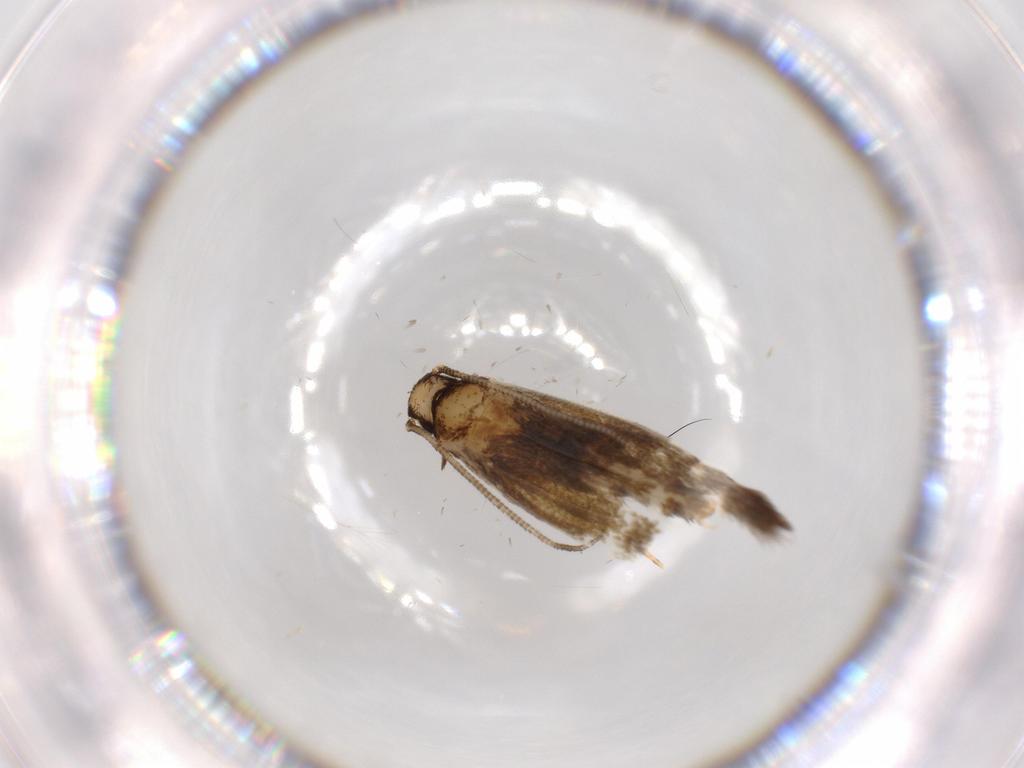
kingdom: Animalia
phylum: Arthropoda
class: Insecta
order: Lepidoptera
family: Tineidae
